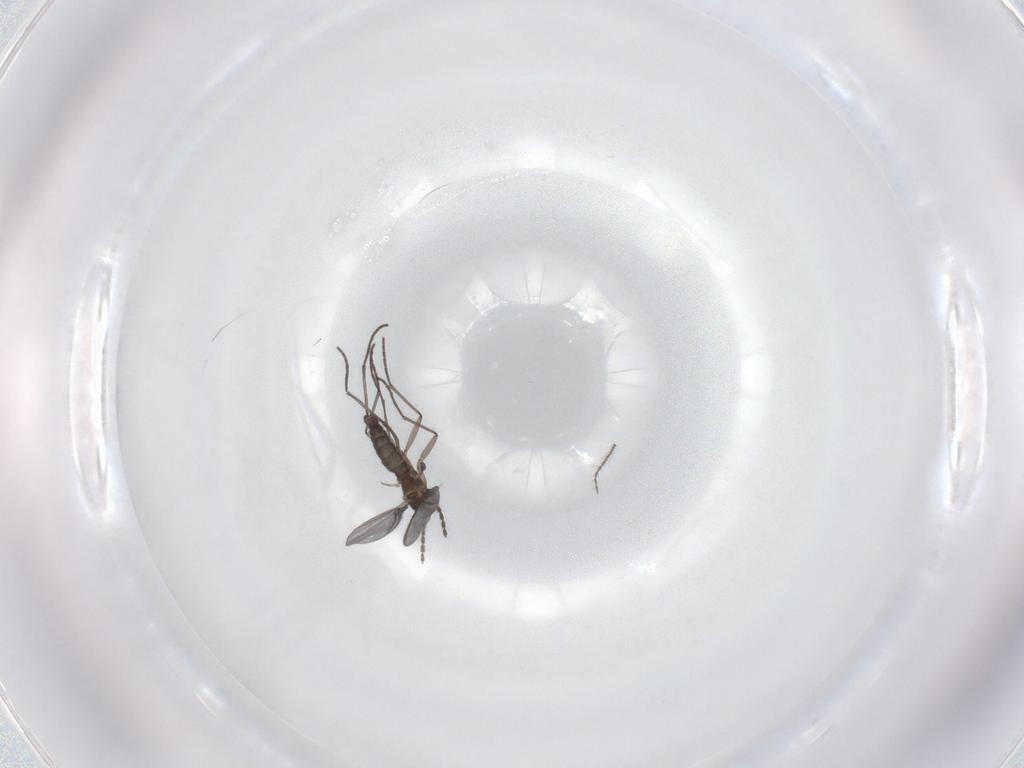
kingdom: Animalia
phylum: Arthropoda
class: Insecta
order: Diptera
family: Sciaridae
